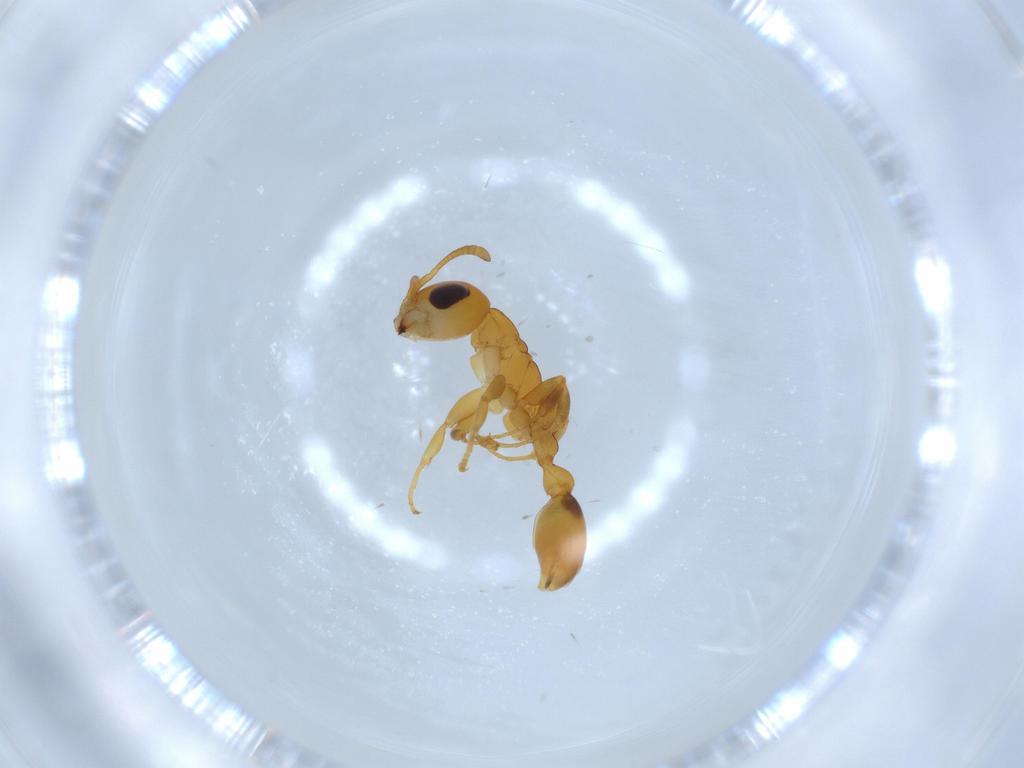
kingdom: Animalia
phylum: Arthropoda
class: Insecta
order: Hymenoptera
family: Formicidae
